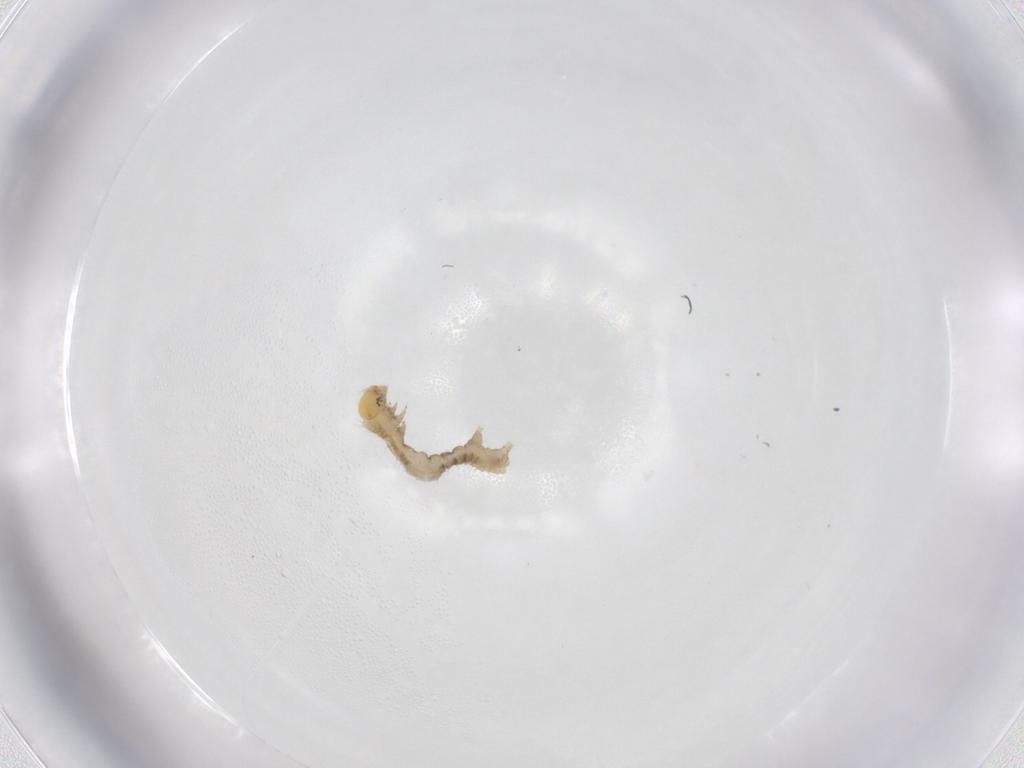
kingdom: Animalia
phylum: Arthropoda
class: Insecta
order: Lepidoptera
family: Geometridae
